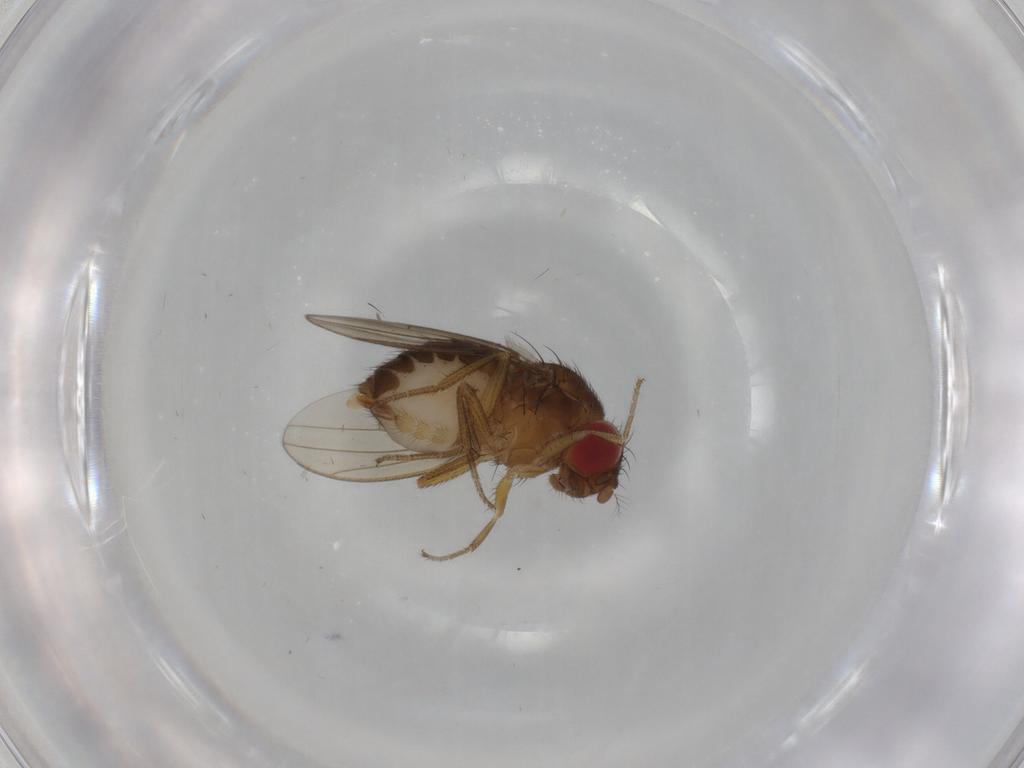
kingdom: Animalia
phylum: Arthropoda
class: Insecta
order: Diptera
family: Drosophilidae
